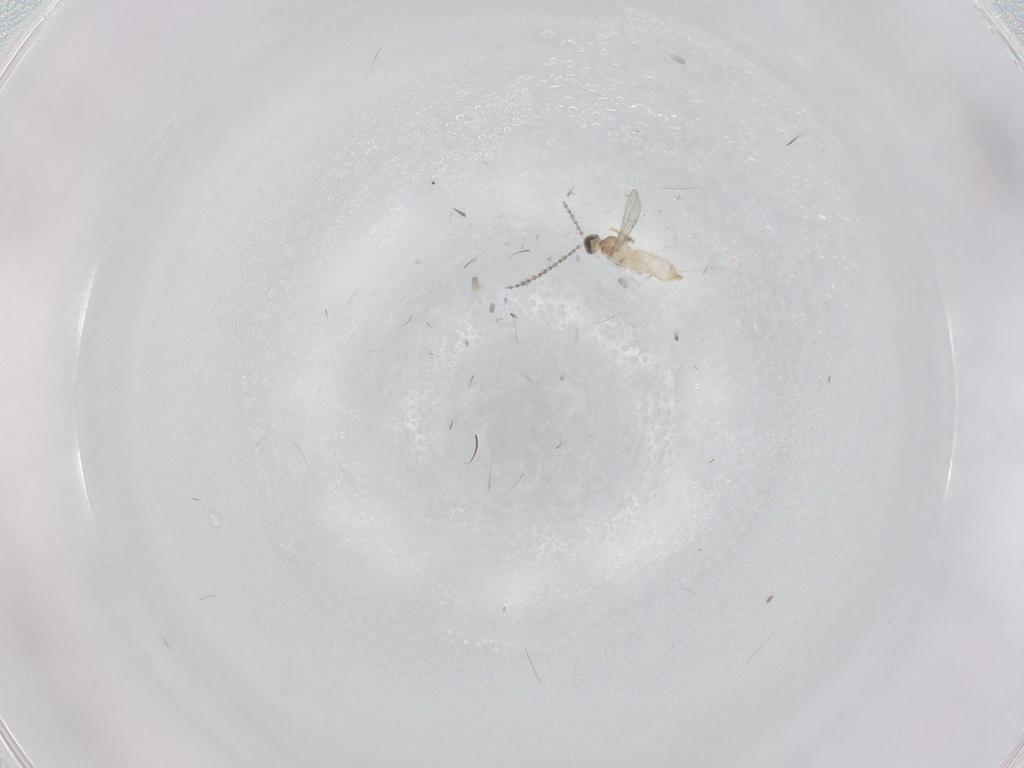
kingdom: Animalia
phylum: Arthropoda
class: Insecta
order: Diptera
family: Cecidomyiidae
